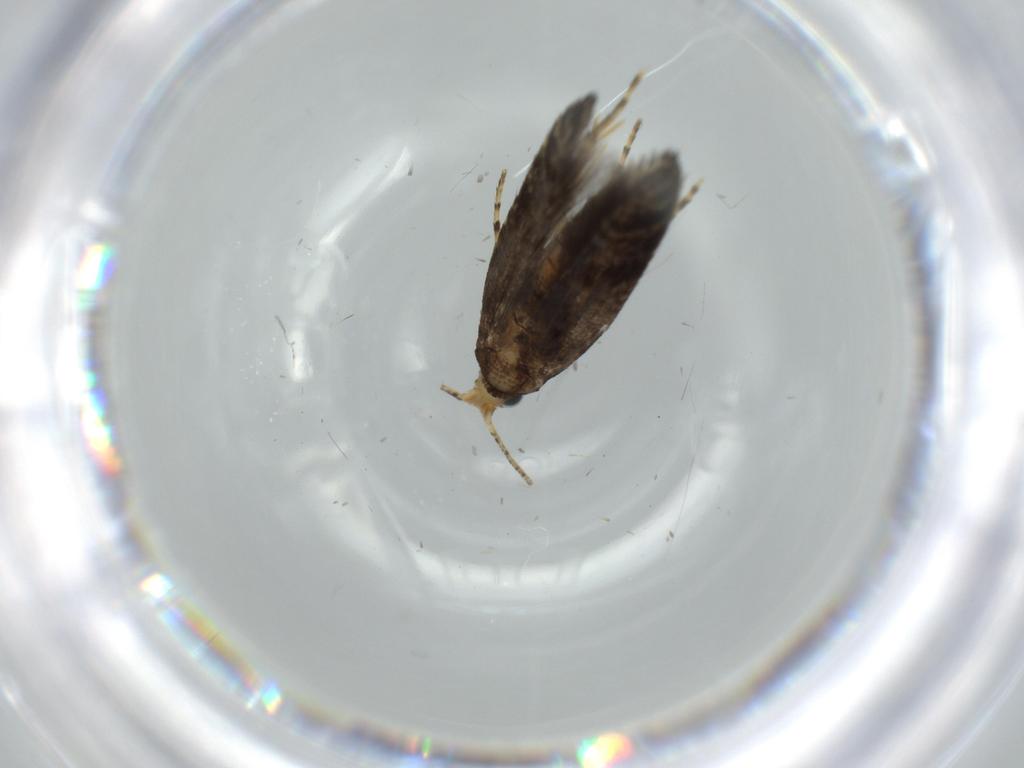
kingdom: Animalia
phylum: Arthropoda
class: Insecta
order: Lepidoptera
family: Argyresthiidae
